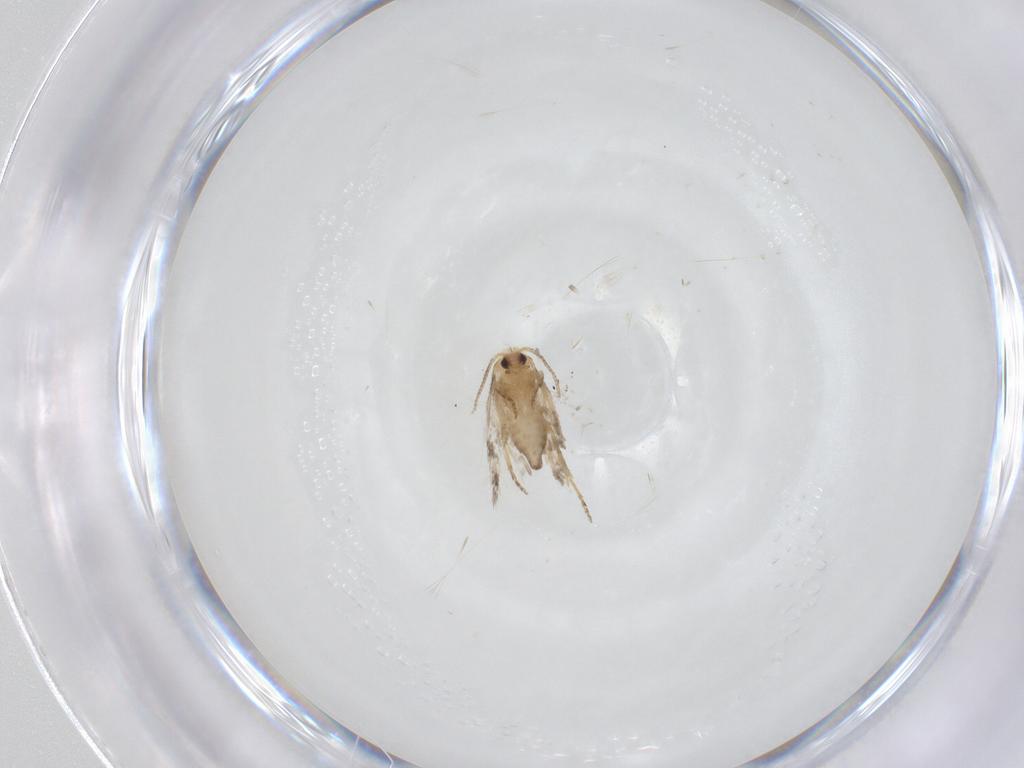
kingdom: Animalia
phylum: Arthropoda
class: Insecta
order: Lepidoptera
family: Nepticulidae
